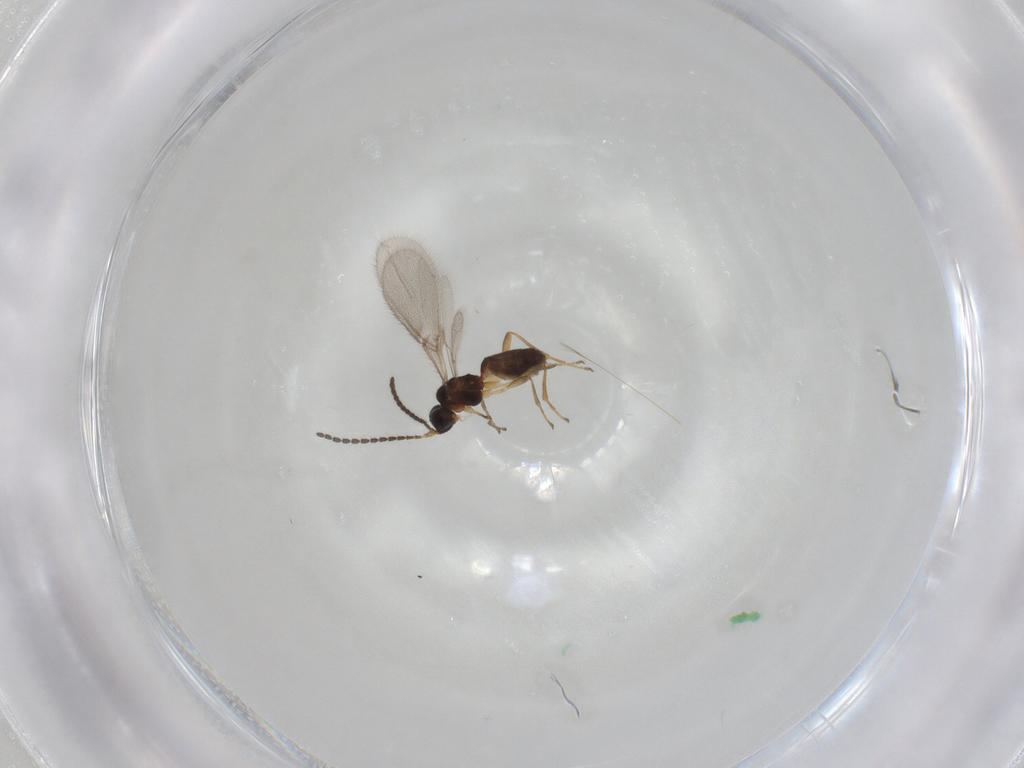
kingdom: Animalia
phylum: Arthropoda
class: Insecta
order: Hymenoptera
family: Braconidae
